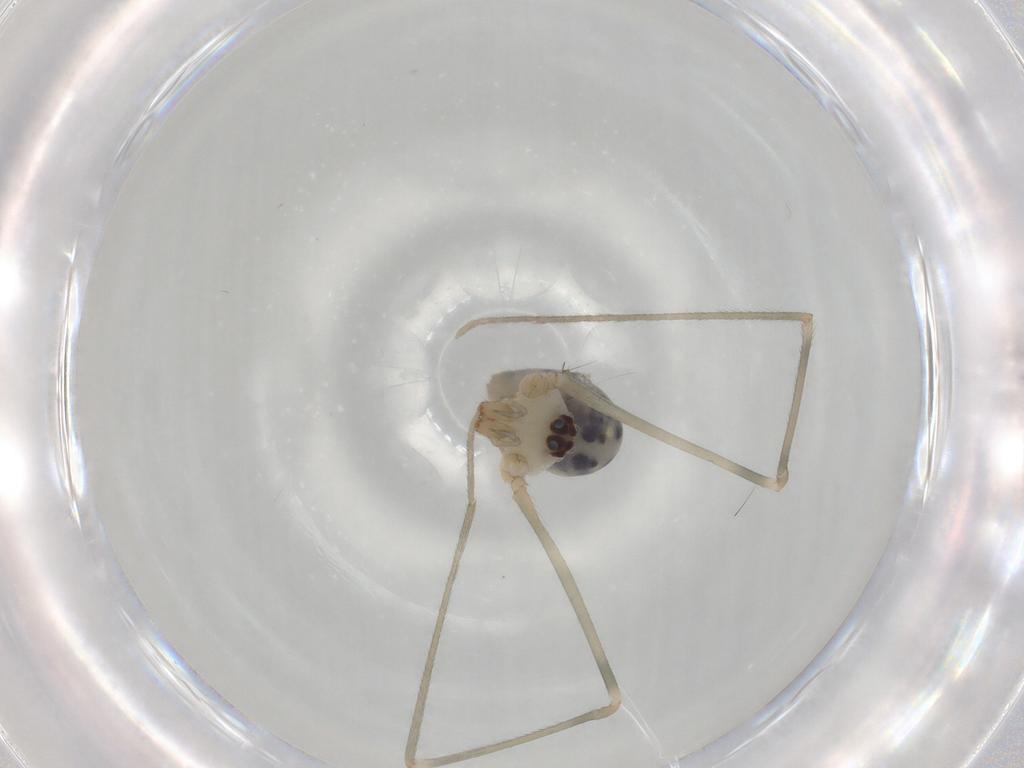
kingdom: Animalia
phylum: Arthropoda
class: Arachnida
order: Araneae
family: Pholcidae
